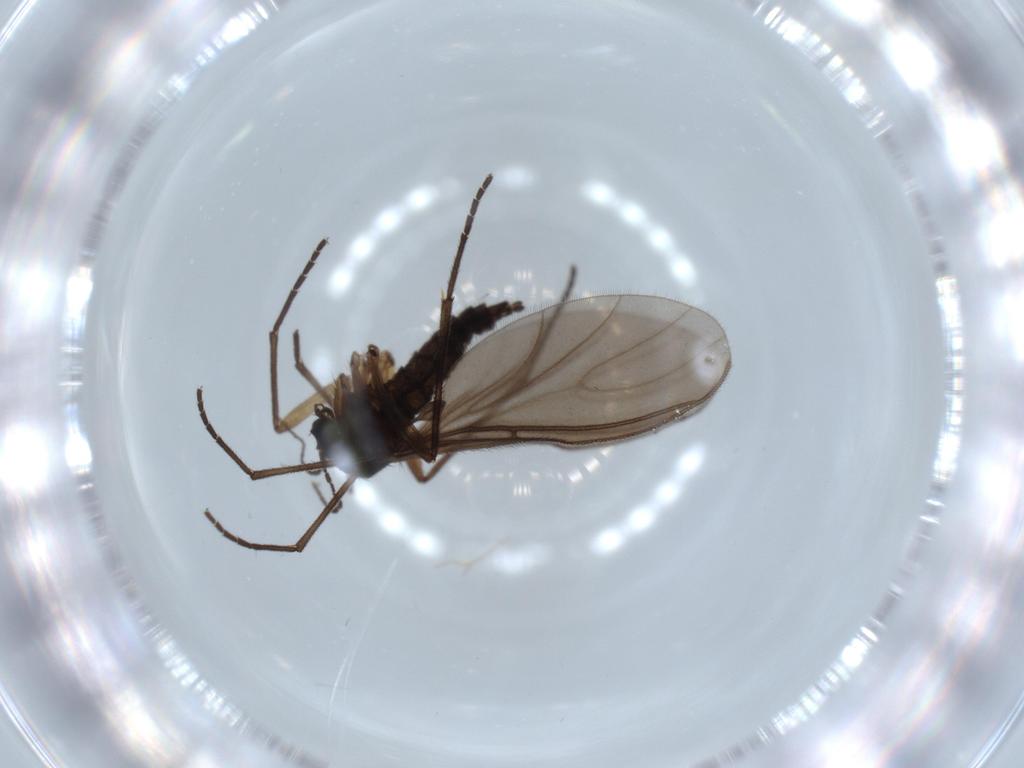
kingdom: Animalia
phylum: Arthropoda
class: Insecta
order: Diptera
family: Sciaridae
